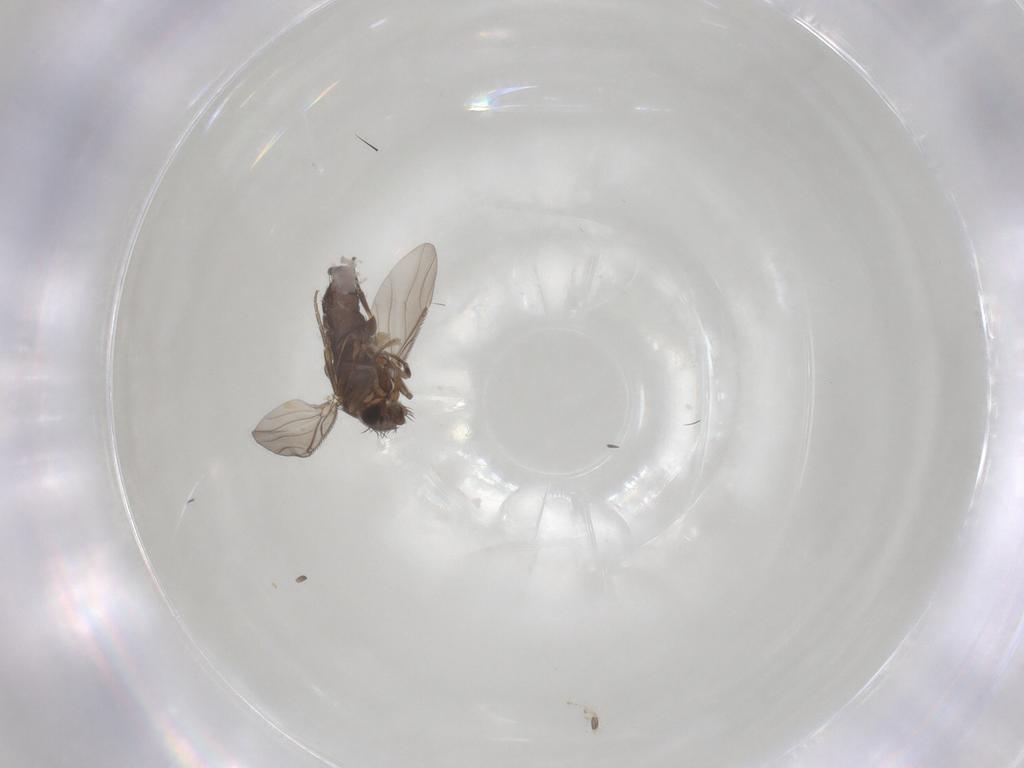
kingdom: Animalia
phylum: Arthropoda
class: Insecta
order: Diptera
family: Phoridae
